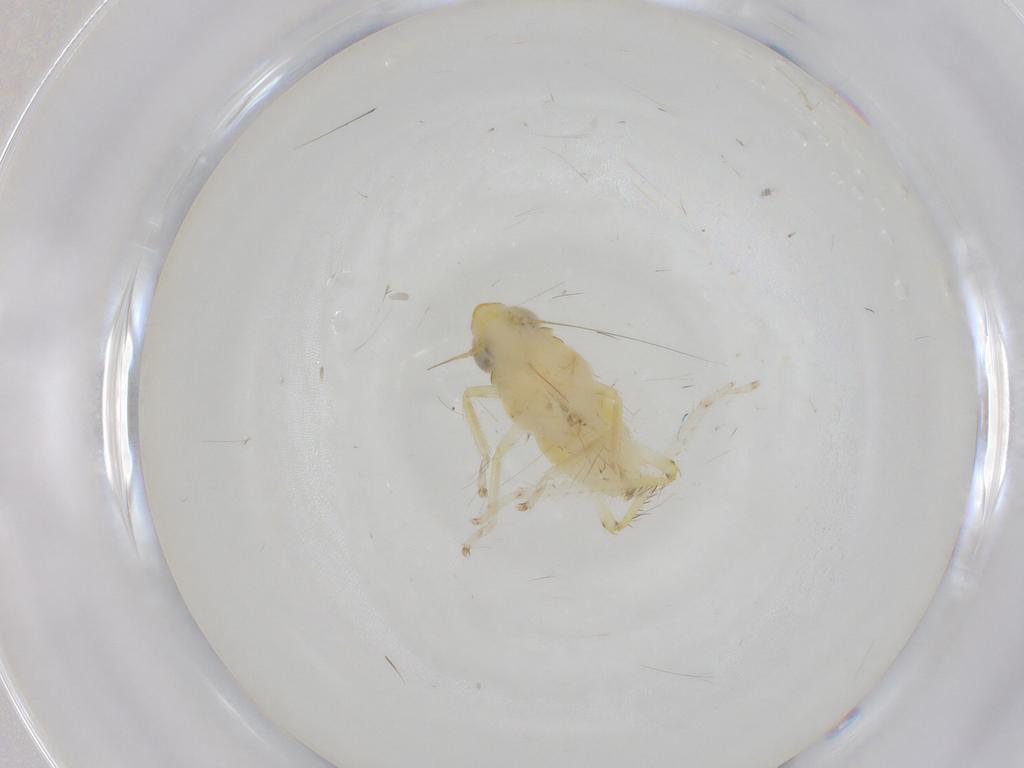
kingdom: Animalia
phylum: Arthropoda
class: Insecta
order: Hemiptera
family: Cicadellidae
